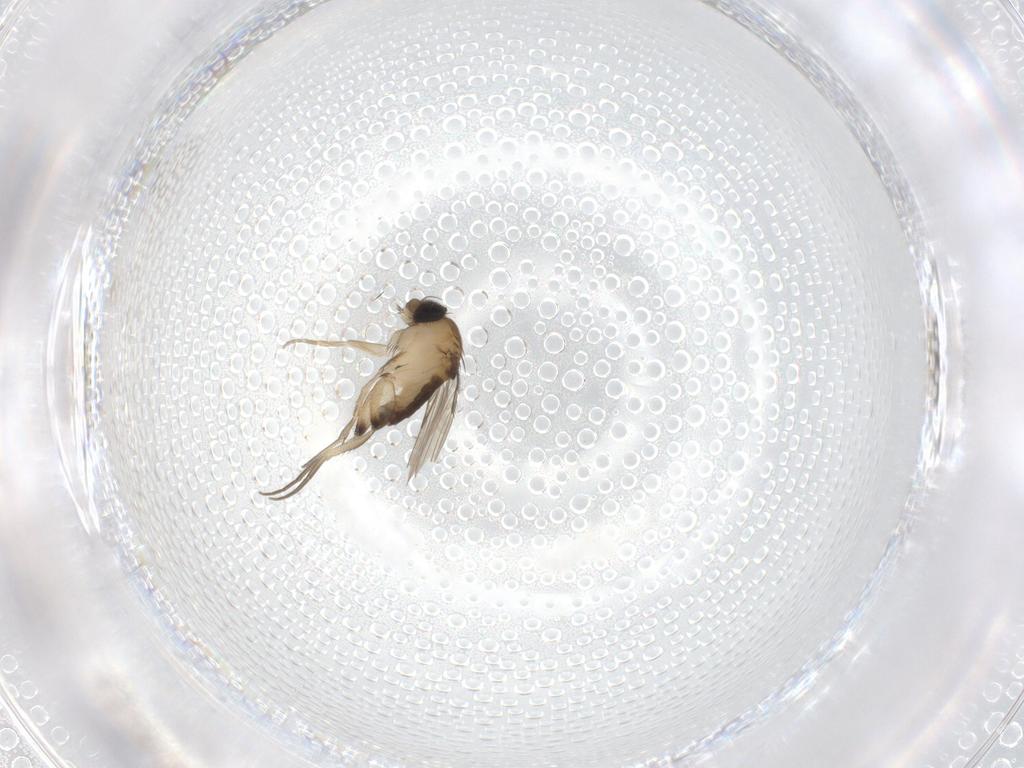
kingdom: Animalia
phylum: Arthropoda
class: Insecta
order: Diptera
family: Phoridae
